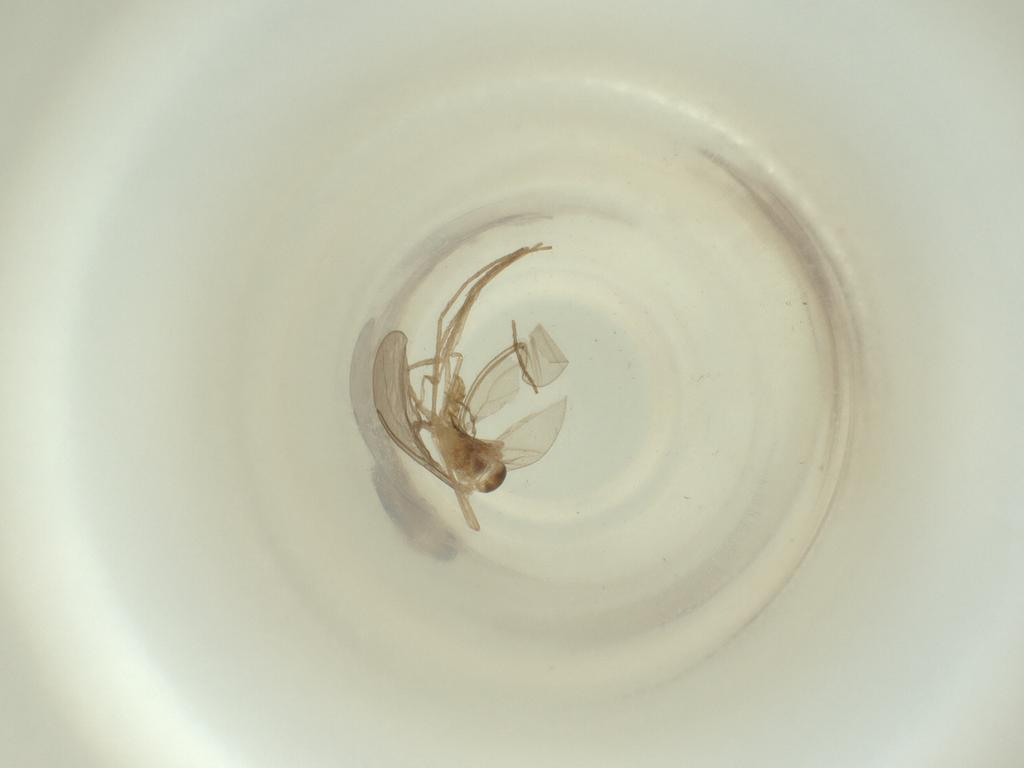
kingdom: Animalia
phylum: Arthropoda
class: Insecta
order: Diptera
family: Cecidomyiidae
